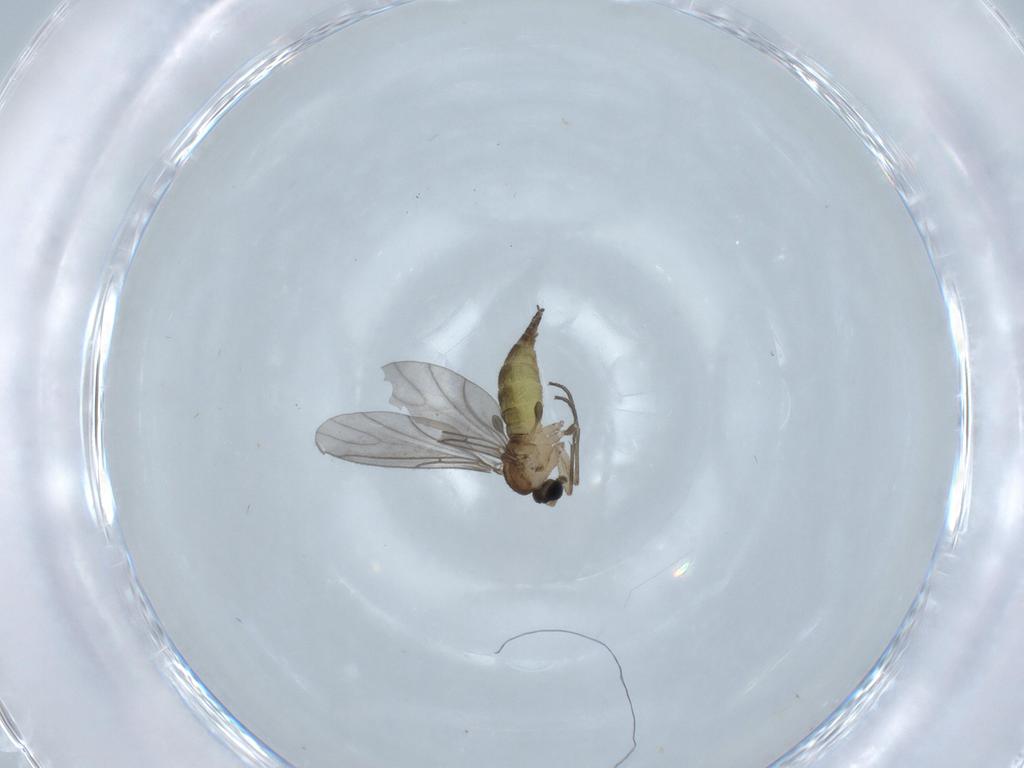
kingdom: Animalia
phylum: Arthropoda
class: Insecta
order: Diptera
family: Sciaridae
